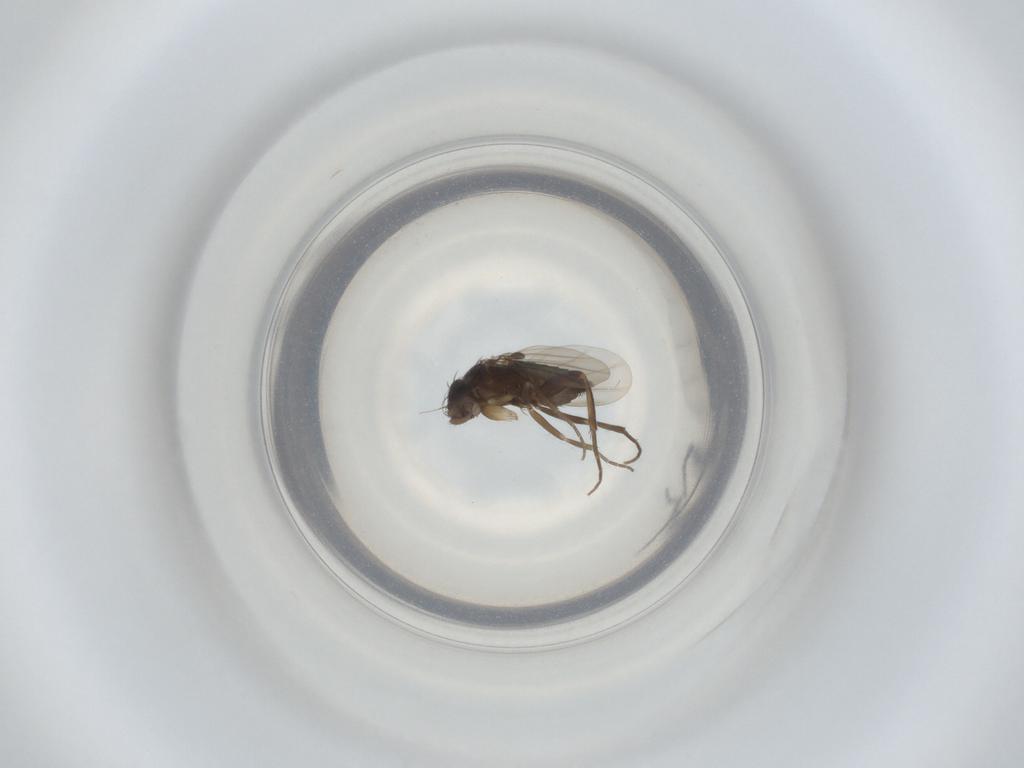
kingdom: Animalia
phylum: Arthropoda
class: Insecta
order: Diptera
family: Phoridae
